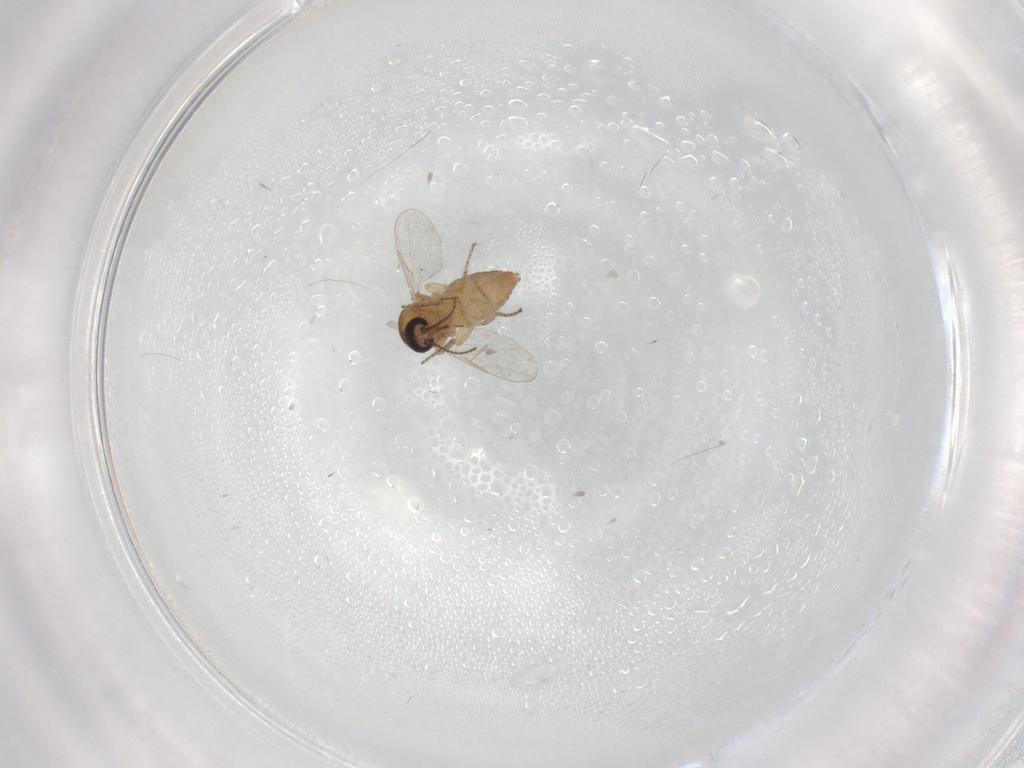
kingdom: Animalia
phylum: Arthropoda
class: Insecta
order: Diptera
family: Ceratopogonidae
